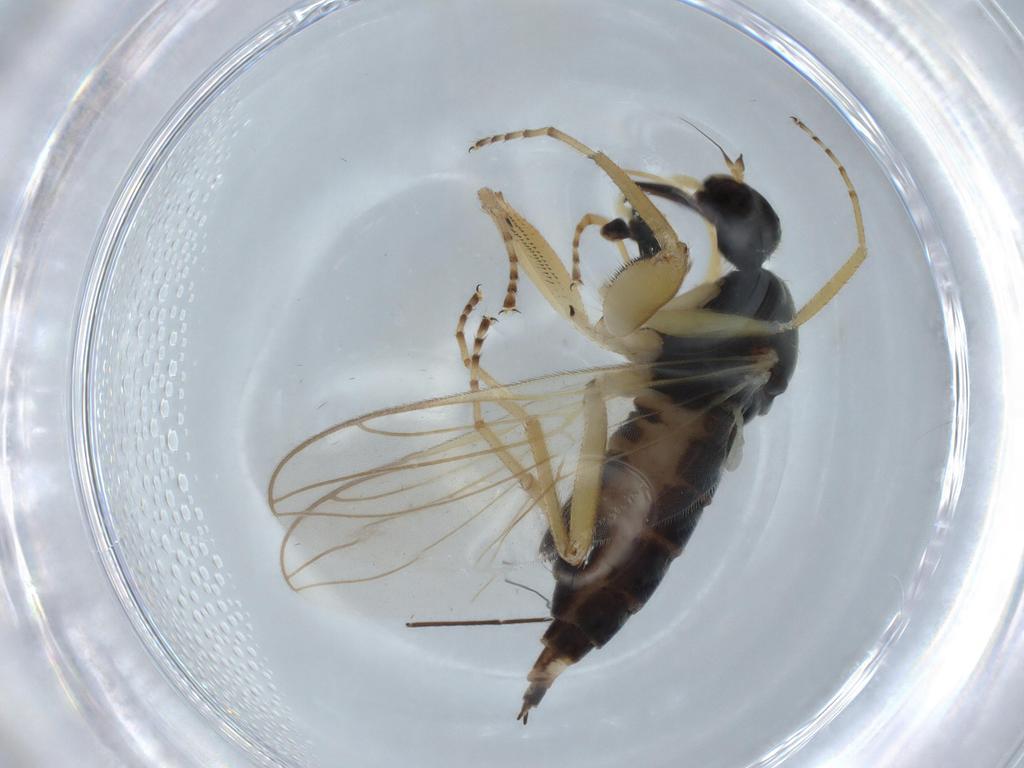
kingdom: Animalia
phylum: Arthropoda
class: Insecta
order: Diptera
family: Hybotidae
